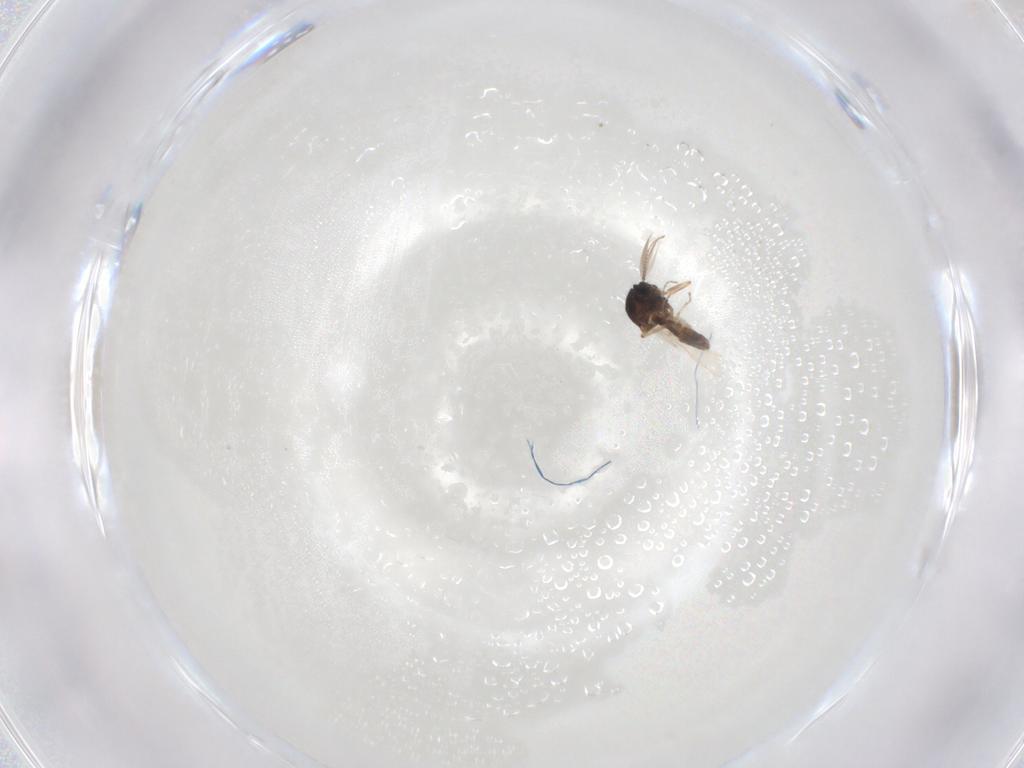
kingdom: Animalia
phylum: Arthropoda
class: Insecta
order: Diptera
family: Ceratopogonidae
